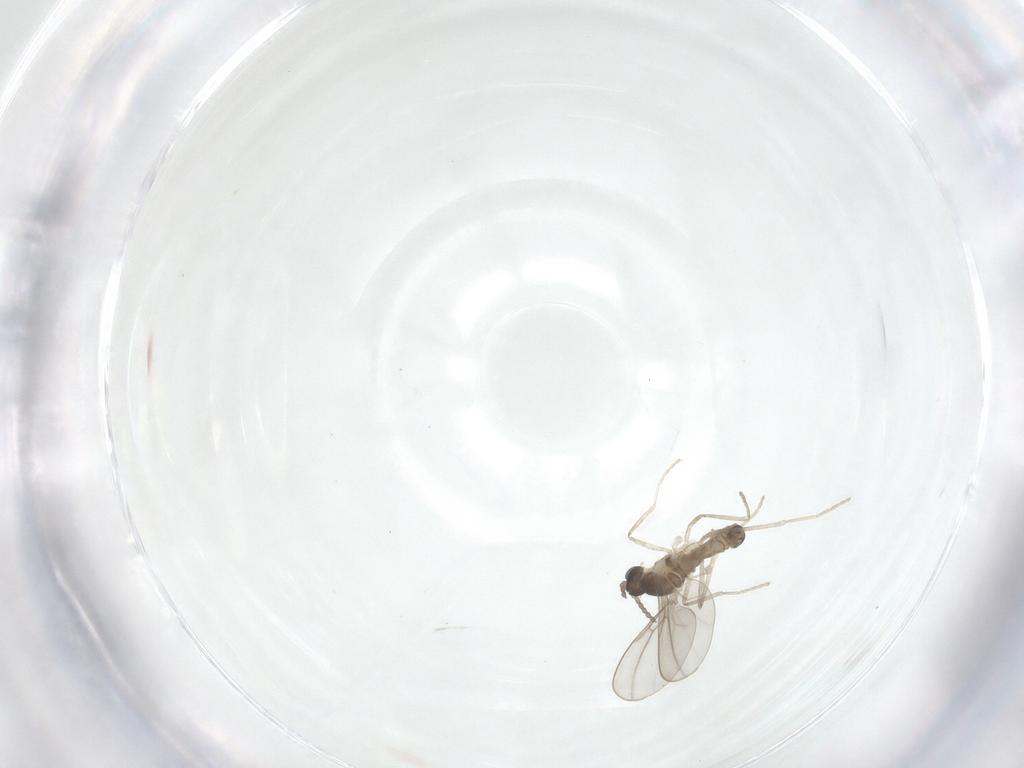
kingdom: Animalia
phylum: Arthropoda
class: Insecta
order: Diptera
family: Cecidomyiidae
